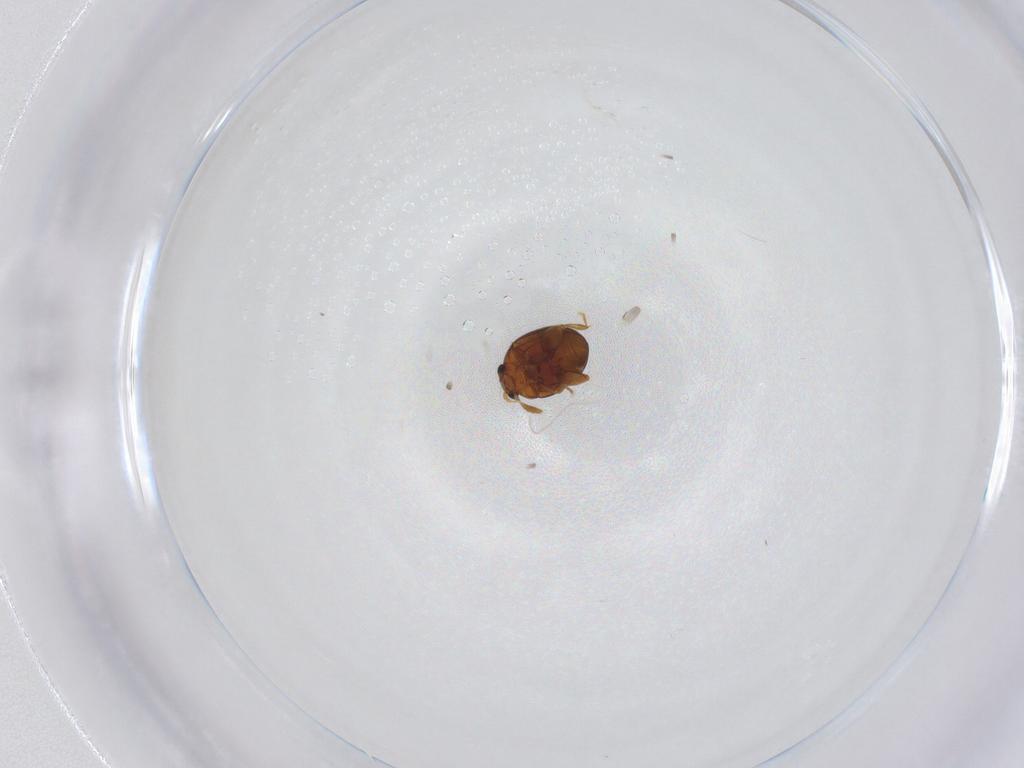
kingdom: Animalia
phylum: Arthropoda
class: Insecta
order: Coleoptera
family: Chrysomelidae
